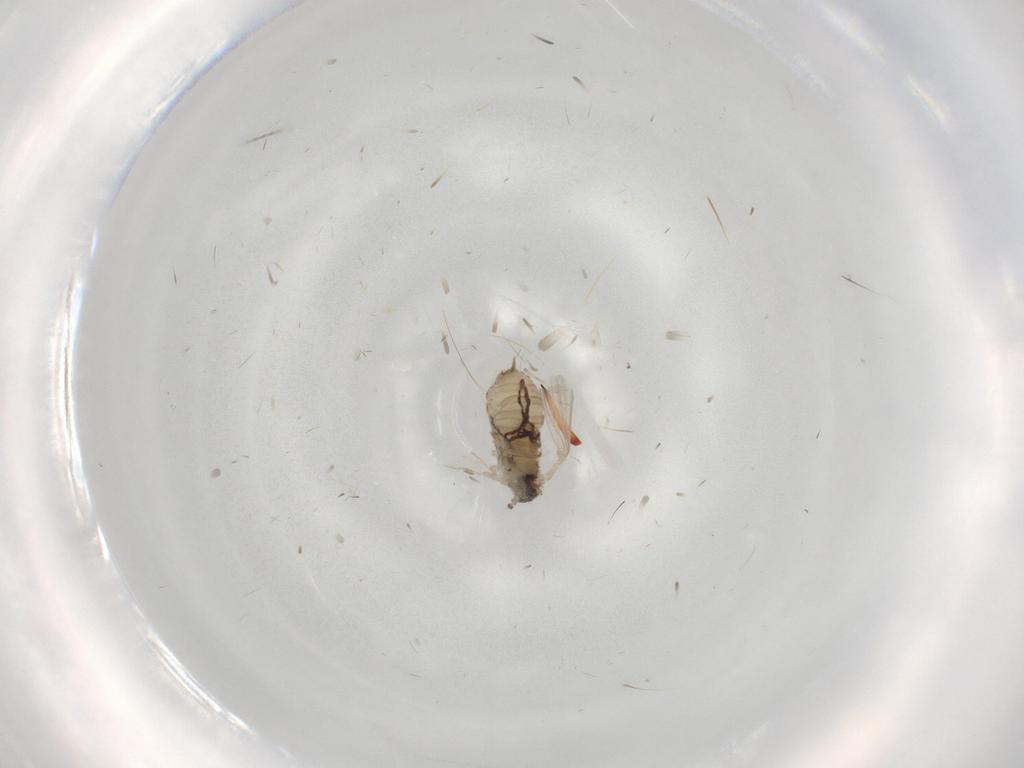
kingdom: Animalia
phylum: Arthropoda
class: Insecta
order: Diptera
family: Psychodidae
